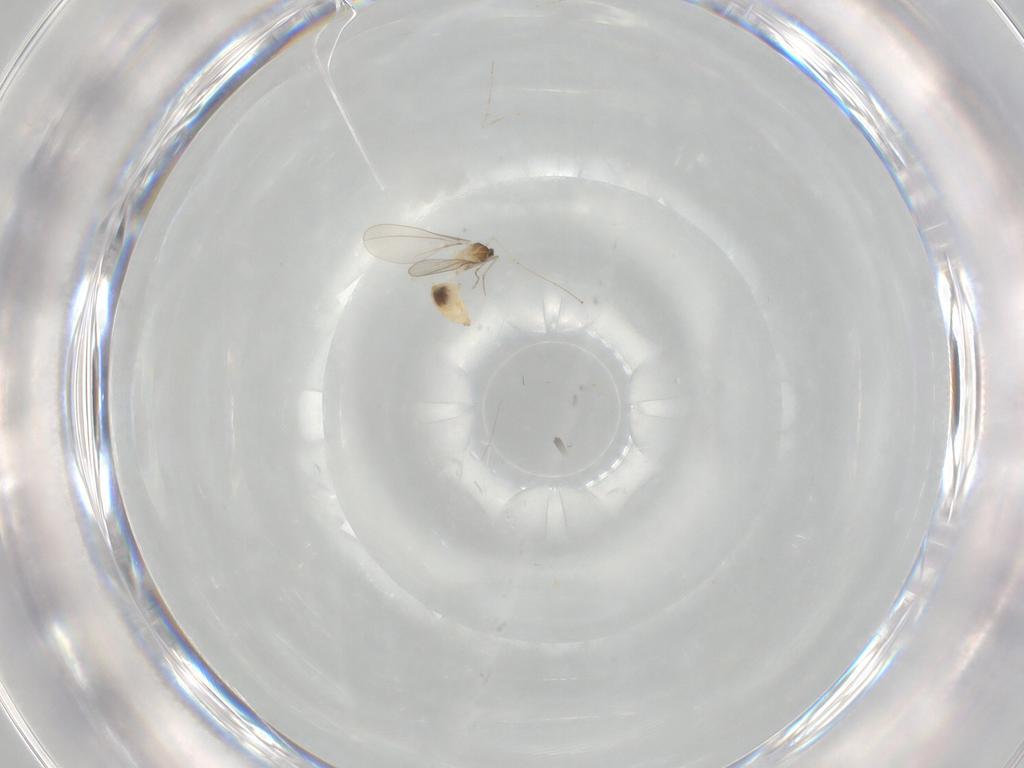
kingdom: Animalia
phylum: Arthropoda
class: Insecta
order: Diptera
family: Cecidomyiidae
